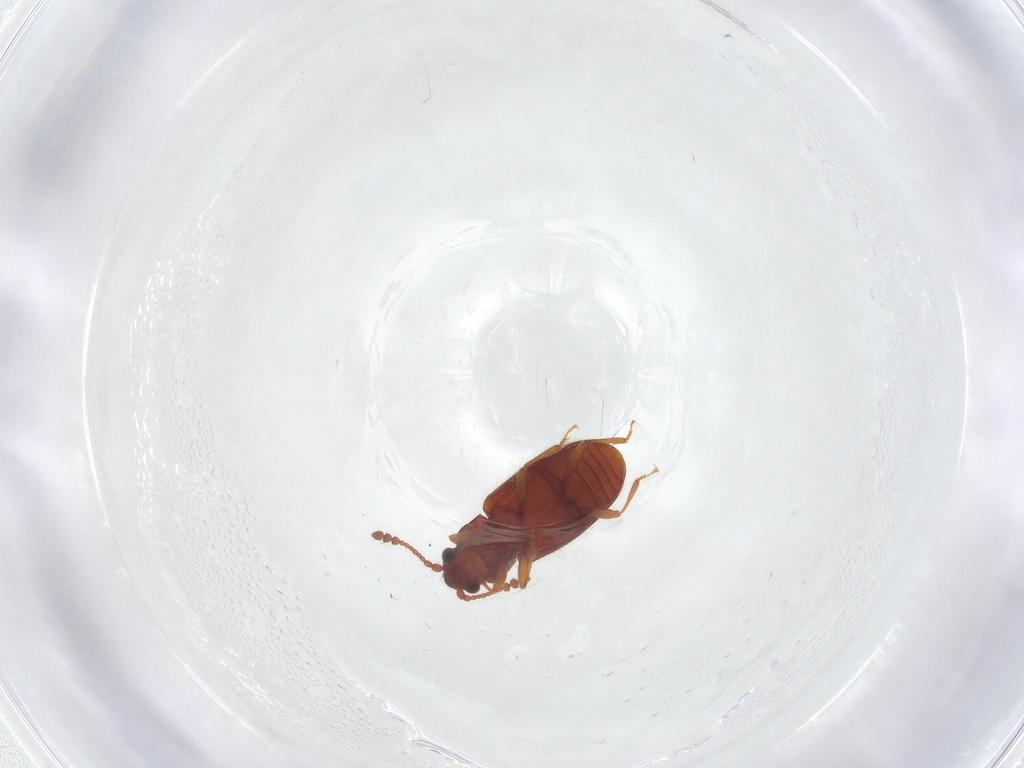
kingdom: Animalia
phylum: Arthropoda
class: Insecta
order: Coleoptera
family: Cryptophagidae
